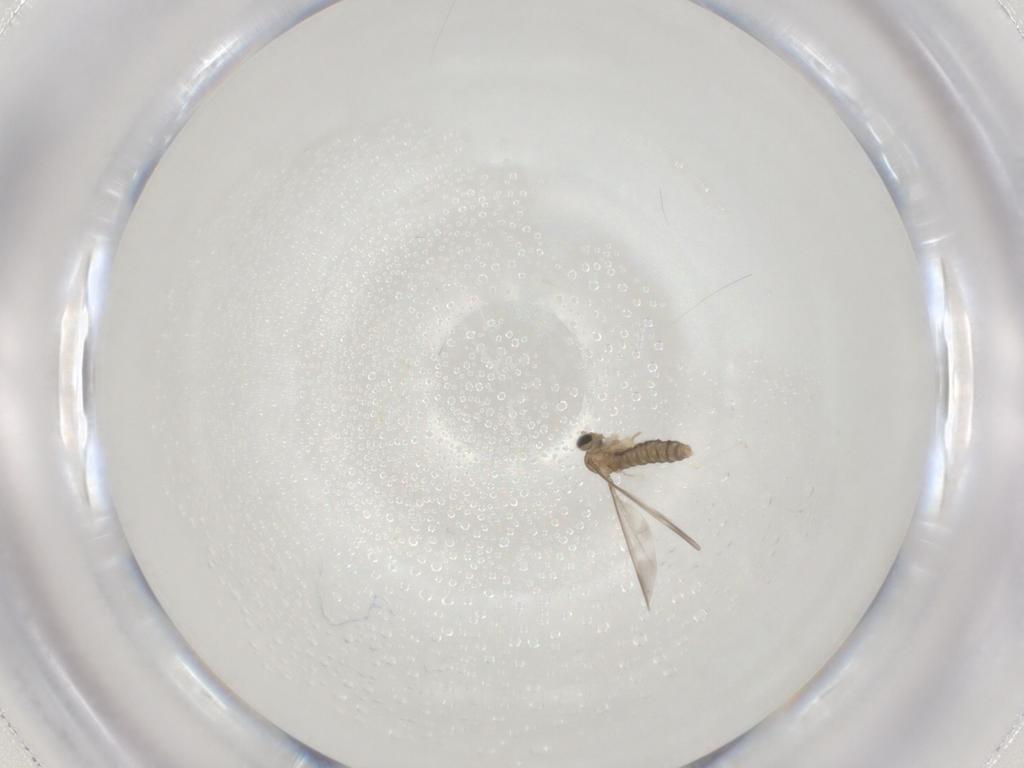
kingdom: Animalia
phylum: Arthropoda
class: Insecta
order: Diptera
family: Cecidomyiidae
